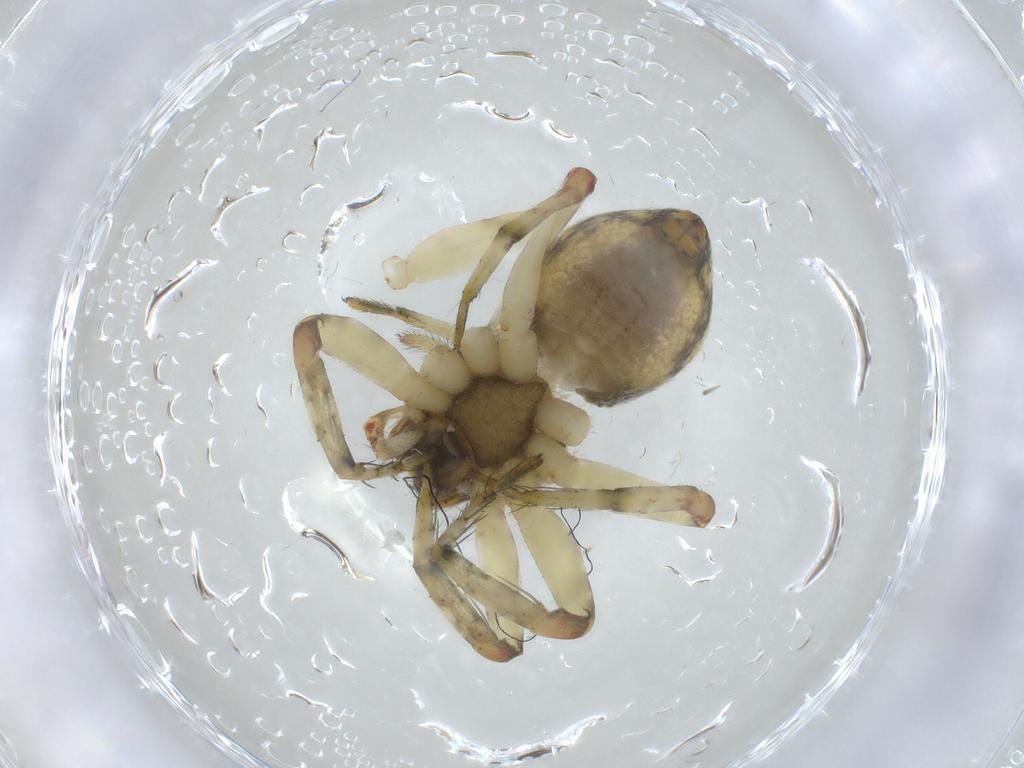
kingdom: Animalia
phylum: Arthropoda
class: Arachnida
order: Araneae
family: Pisauridae
